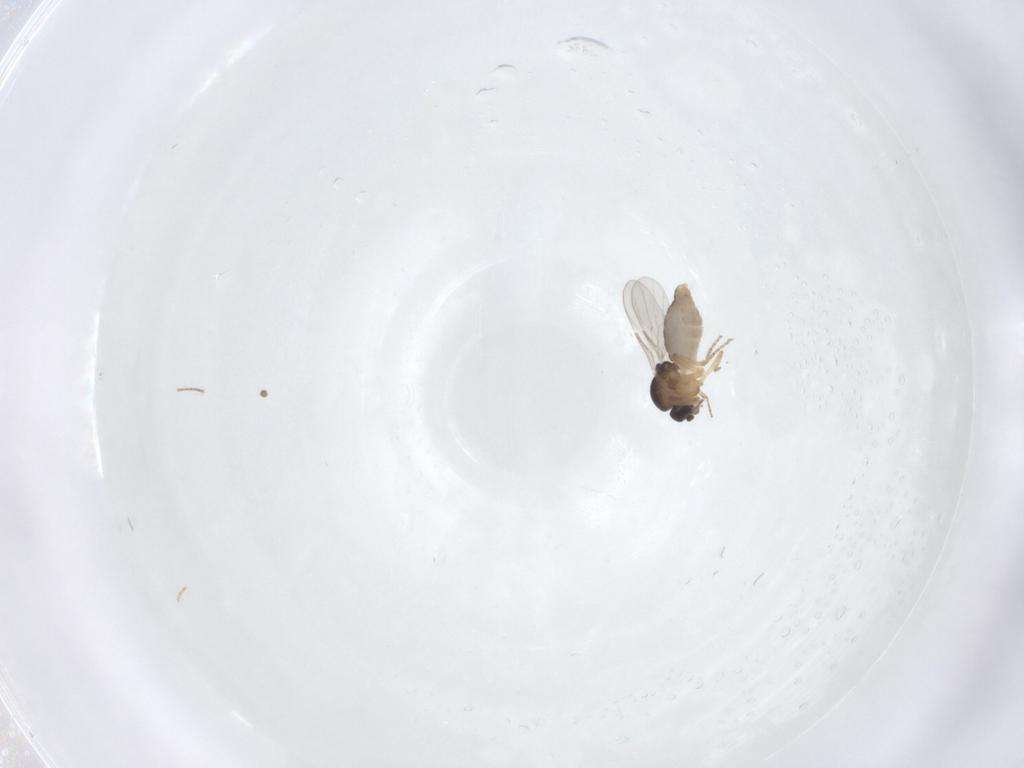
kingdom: Animalia
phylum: Arthropoda
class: Insecta
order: Diptera
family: Ceratopogonidae
